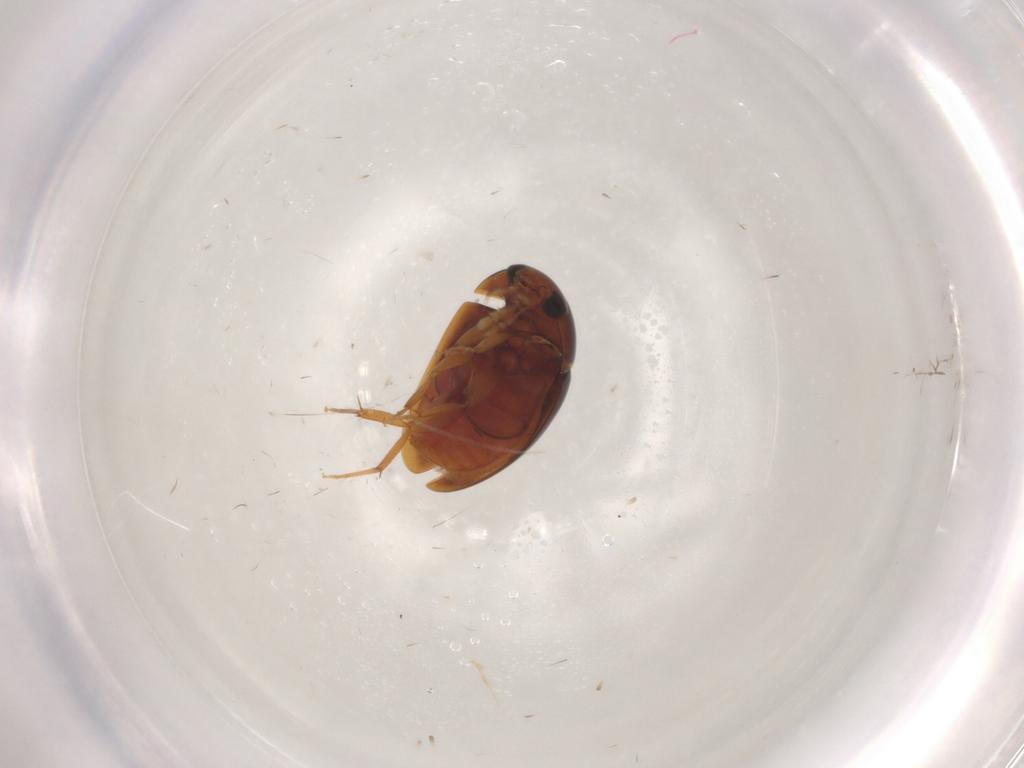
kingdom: Animalia
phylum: Arthropoda
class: Insecta
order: Coleoptera
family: Phalacridae
